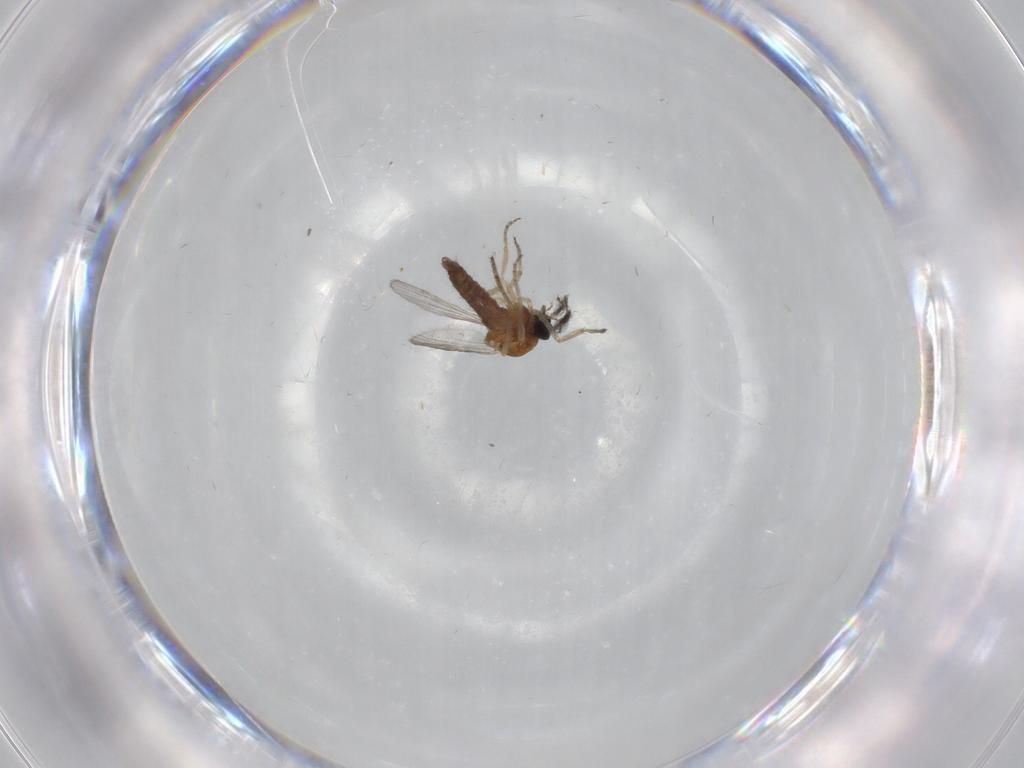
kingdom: Animalia
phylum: Arthropoda
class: Insecta
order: Diptera
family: Ceratopogonidae
